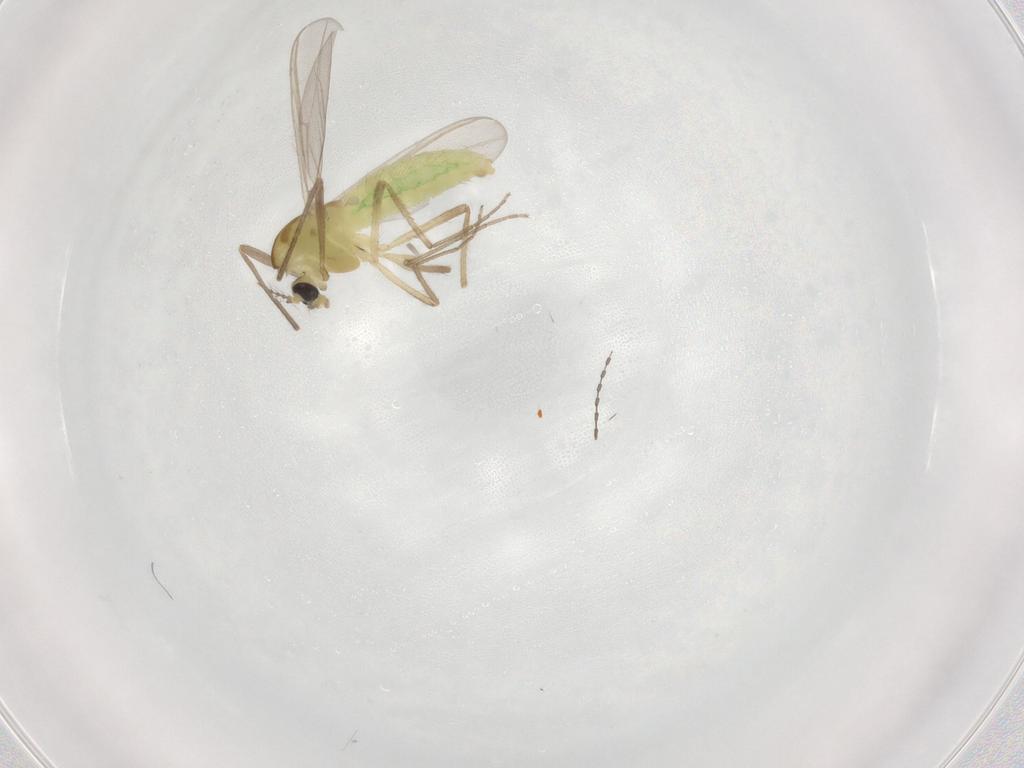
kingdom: Animalia
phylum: Arthropoda
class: Insecta
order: Diptera
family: Chironomidae
